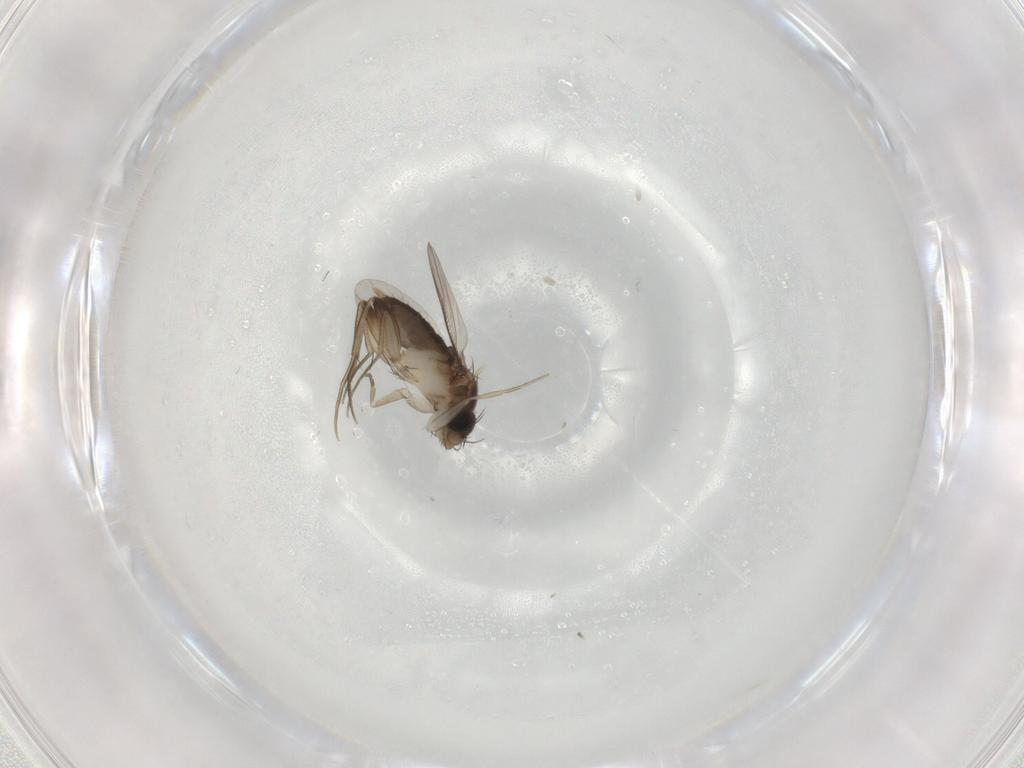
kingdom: Animalia
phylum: Arthropoda
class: Insecta
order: Diptera
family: Phoridae
